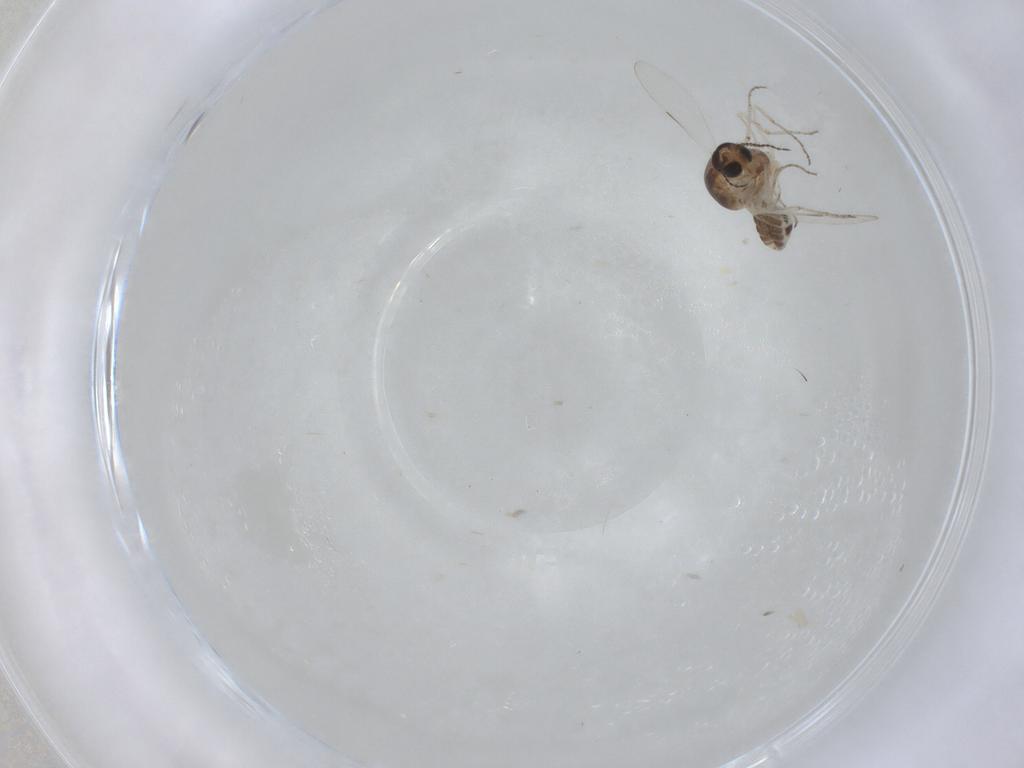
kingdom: Animalia
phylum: Arthropoda
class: Insecta
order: Diptera
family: Ceratopogonidae
